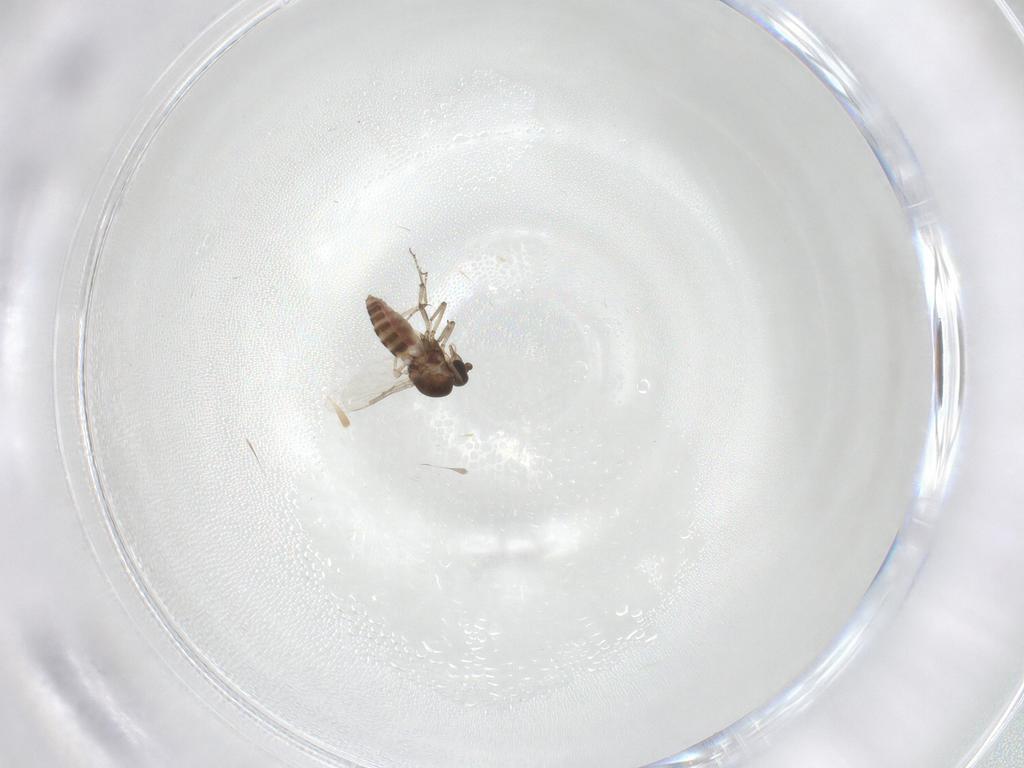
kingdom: Animalia
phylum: Arthropoda
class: Insecta
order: Diptera
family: Ceratopogonidae
